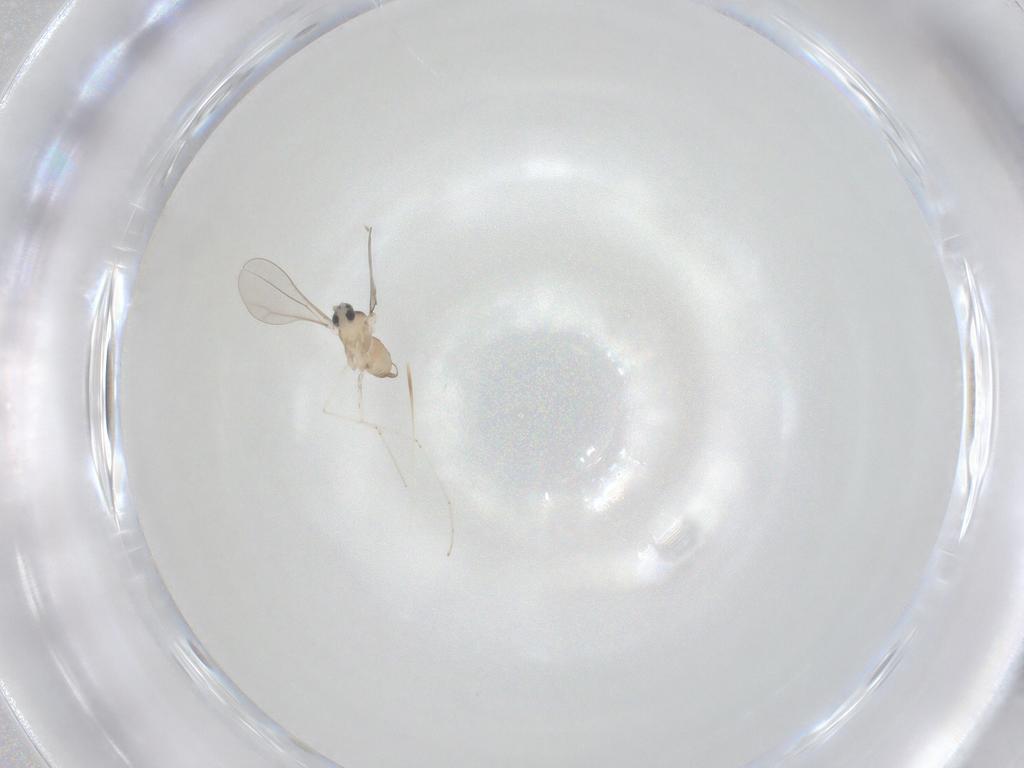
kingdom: Animalia
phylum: Arthropoda
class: Insecta
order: Diptera
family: Cecidomyiidae
